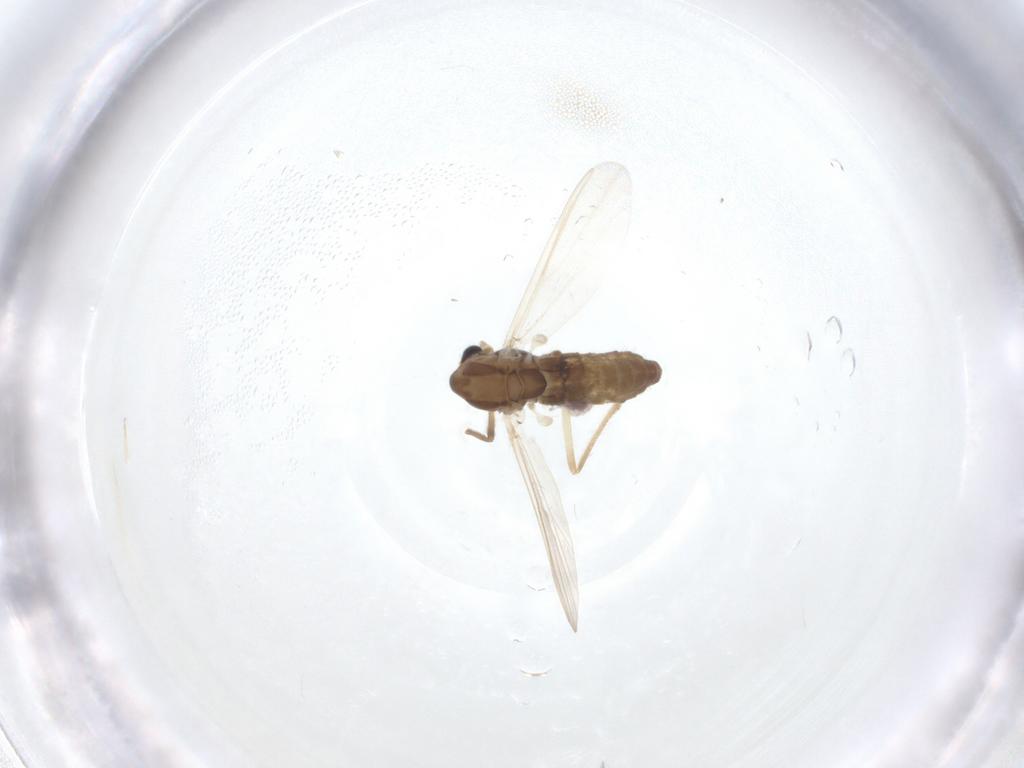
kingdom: Animalia
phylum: Arthropoda
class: Insecta
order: Diptera
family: Chironomidae
